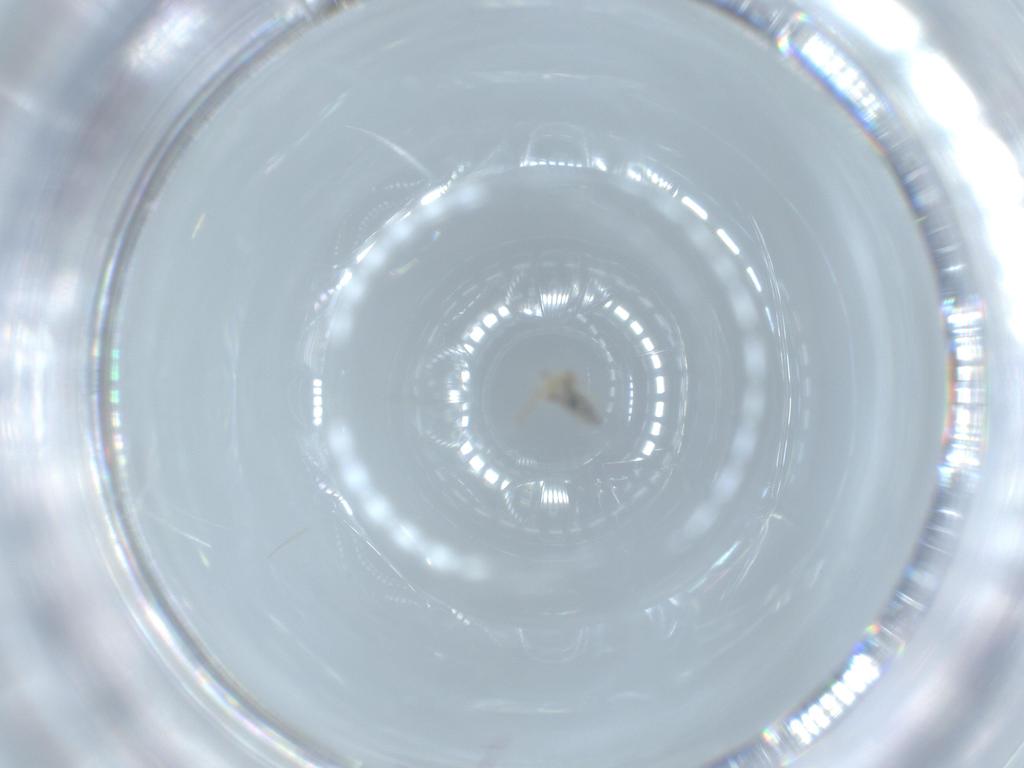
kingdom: Animalia
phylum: Arthropoda
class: Collembola
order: Symphypleona
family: Bourletiellidae
